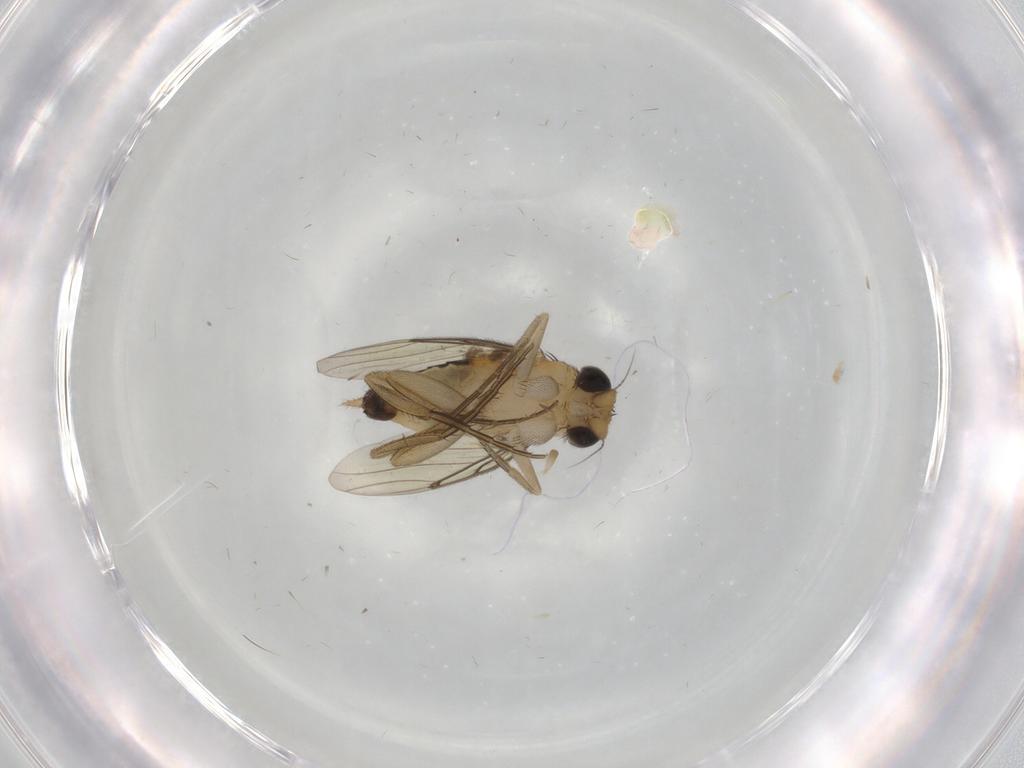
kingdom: Animalia
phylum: Arthropoda
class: Insecta
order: Diptera
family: Phoridae
